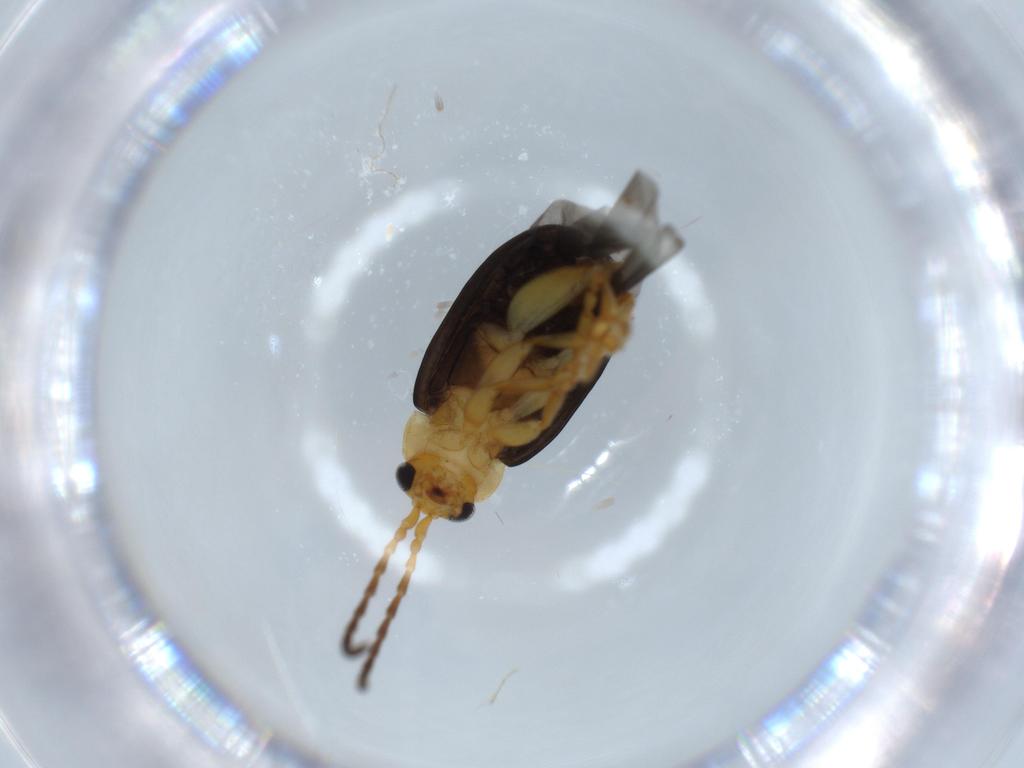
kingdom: Animalia
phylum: Arthropoda
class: Insecta
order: Coleoptera
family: Chrysomelidae
